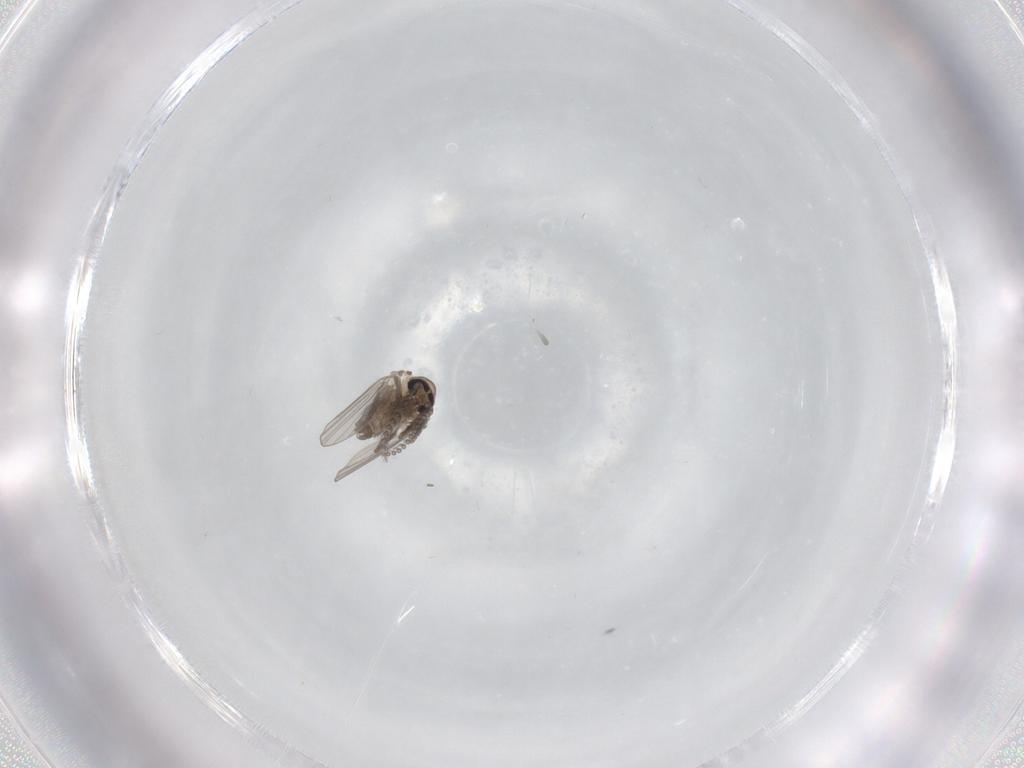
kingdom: Animalia
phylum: Arthropoda
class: Insecta
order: Diptera
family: Psychodidae
